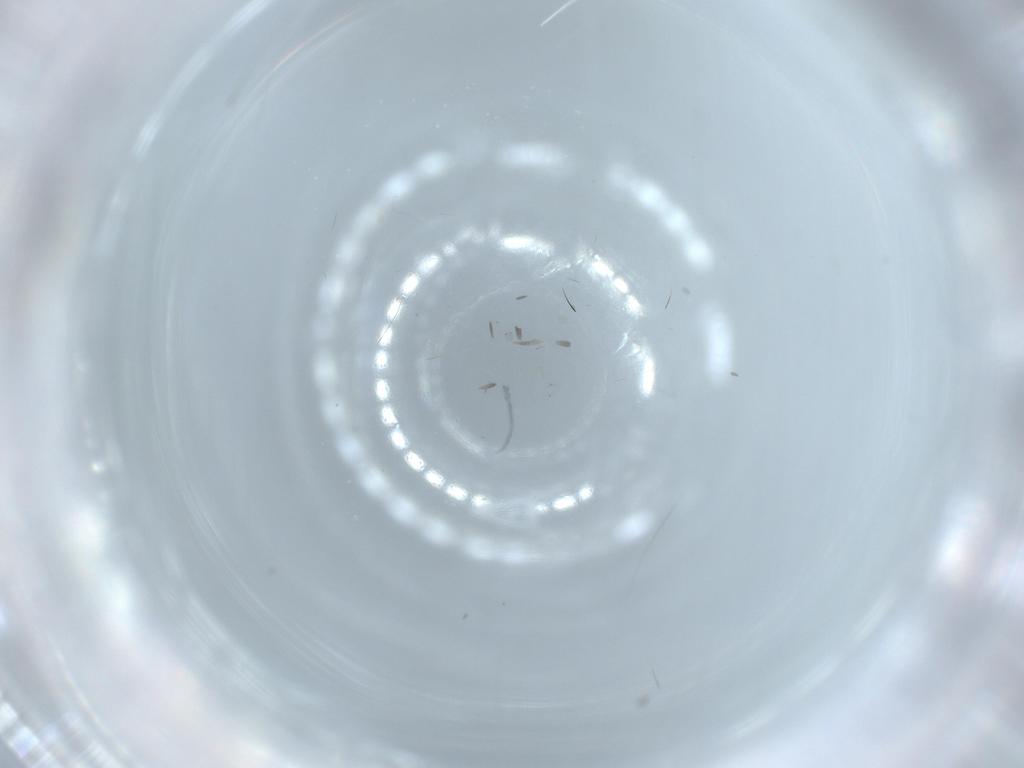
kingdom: Animalia
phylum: Arthropoda
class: Insecta
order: Diptera
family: Sciaridae
